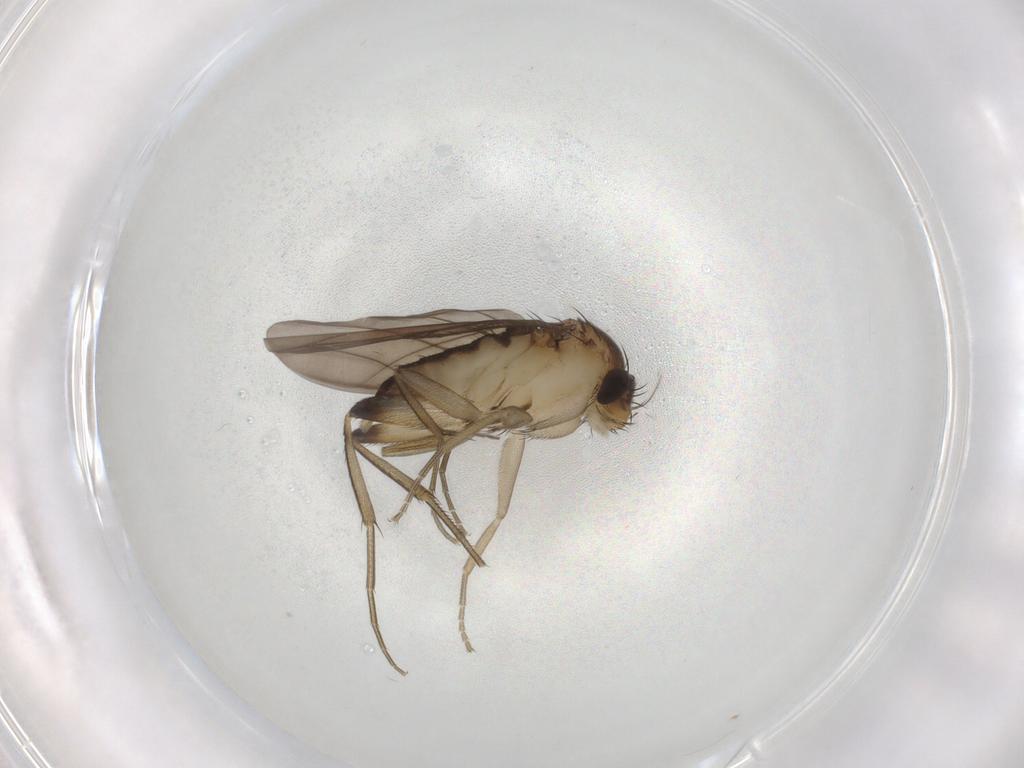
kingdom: Animalia
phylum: Arthropoda
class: Insecta
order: Diptera
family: Phoridae
